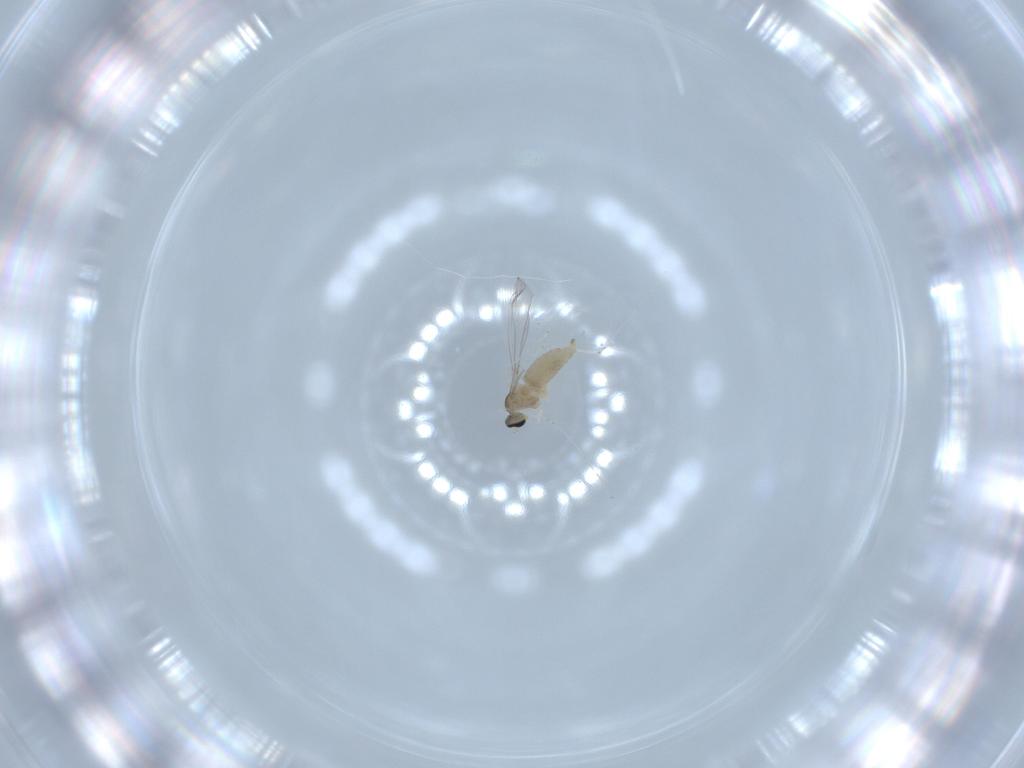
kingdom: Animalia
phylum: Arthropoda
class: Insecta
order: Diptera
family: Cecidomyiidae
